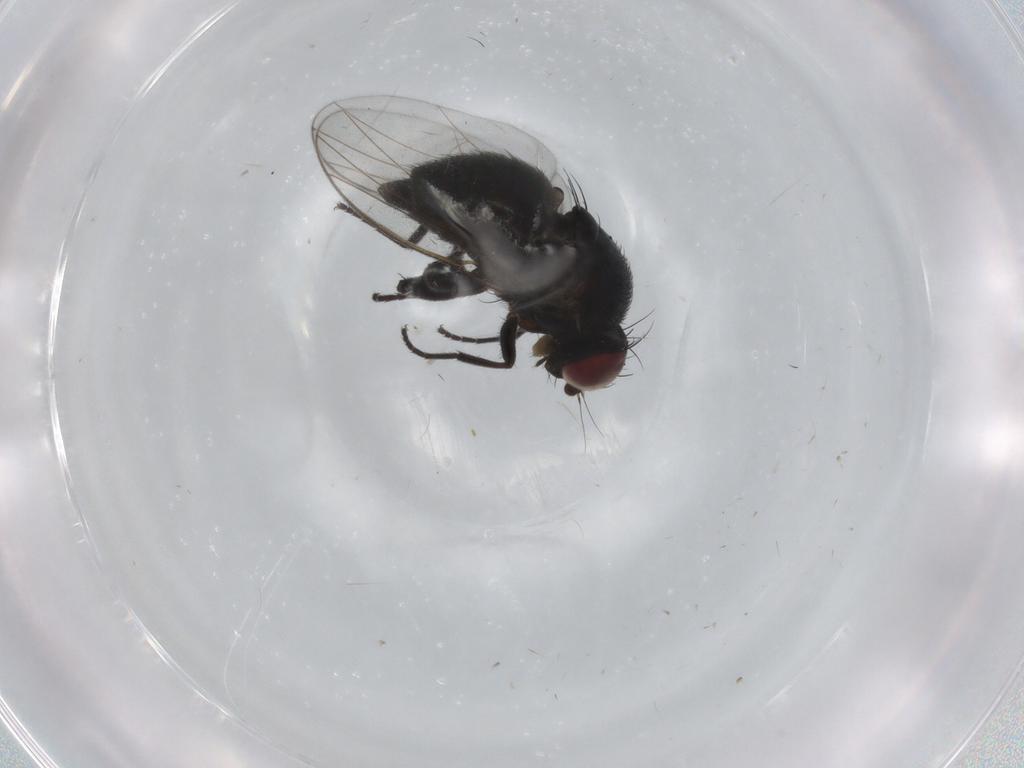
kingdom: Animalia
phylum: Arthropoda
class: Insecta
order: Diptera
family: Agromyzidae
